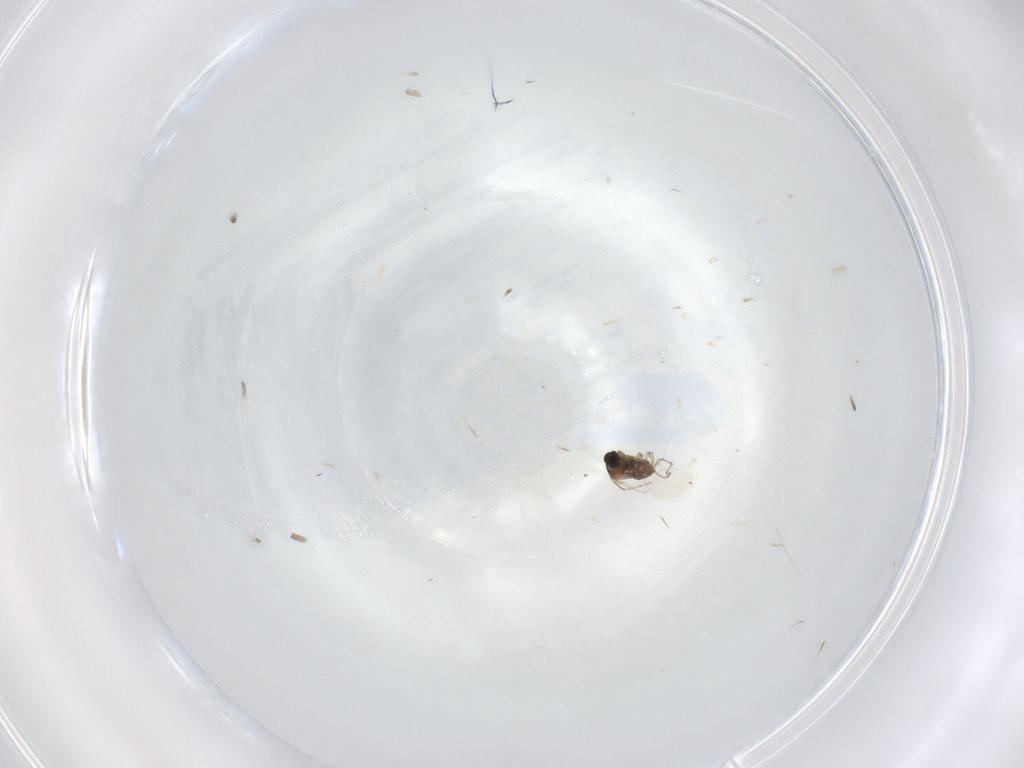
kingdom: Animalia
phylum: Arthropoda
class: Insecta
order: Diptera
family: Cecidomyiidae
